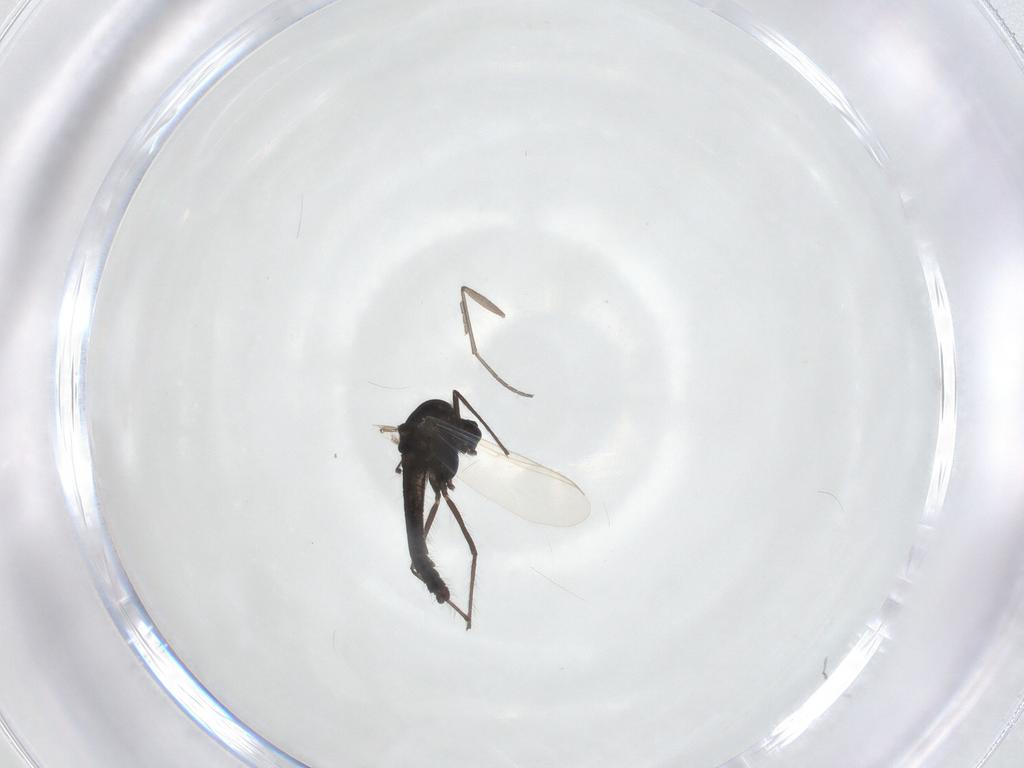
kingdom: Animalia
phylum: Arthropoda
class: Insecta
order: Diptera
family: Chironomidae
